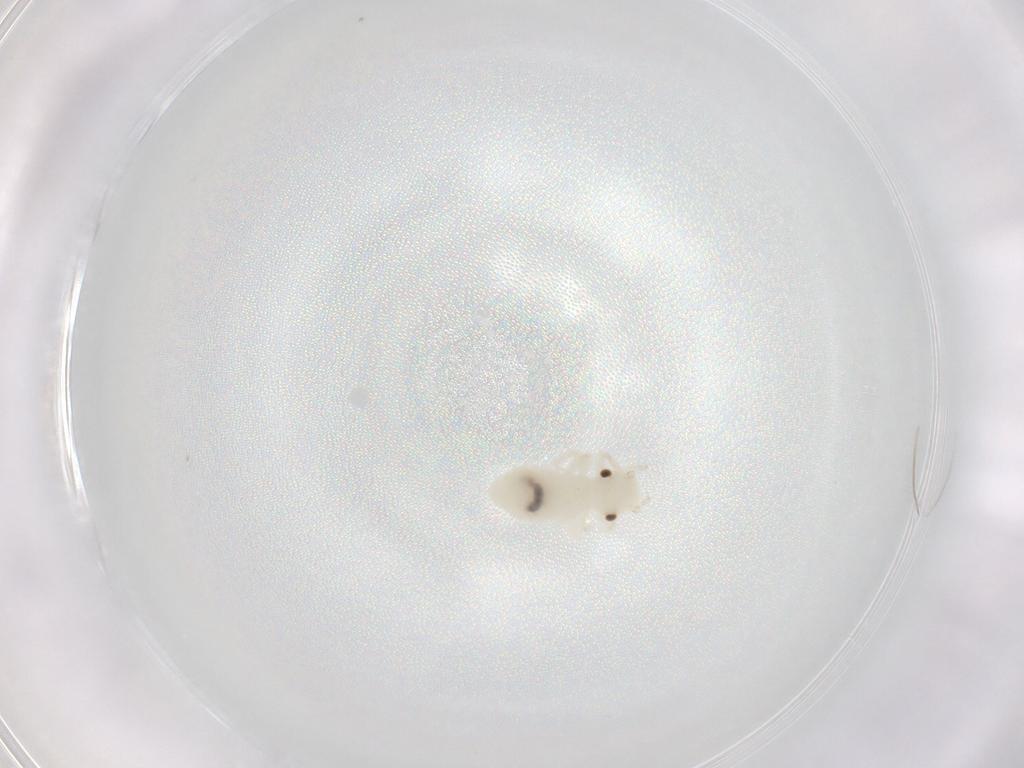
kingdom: Animalia
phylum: Arthropoda
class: Insecta
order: Psocodea
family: Caeciliusidae
